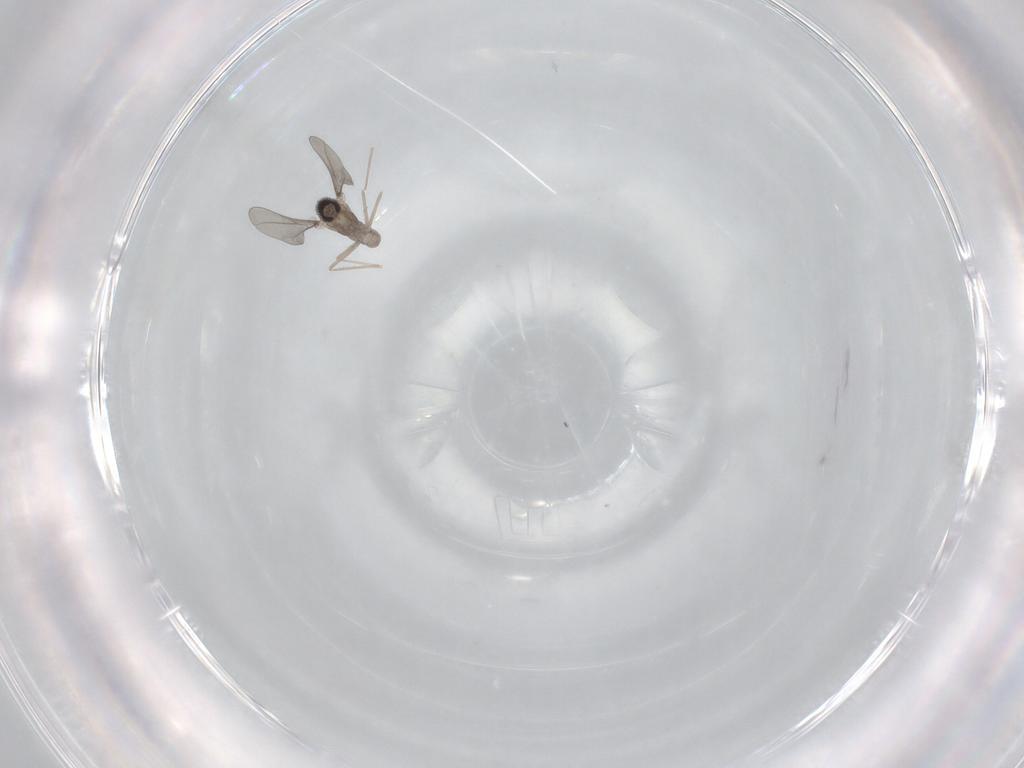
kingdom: Animalia
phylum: Arthropoda
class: Insecta
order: Diptera
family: Cecidomyiidae
